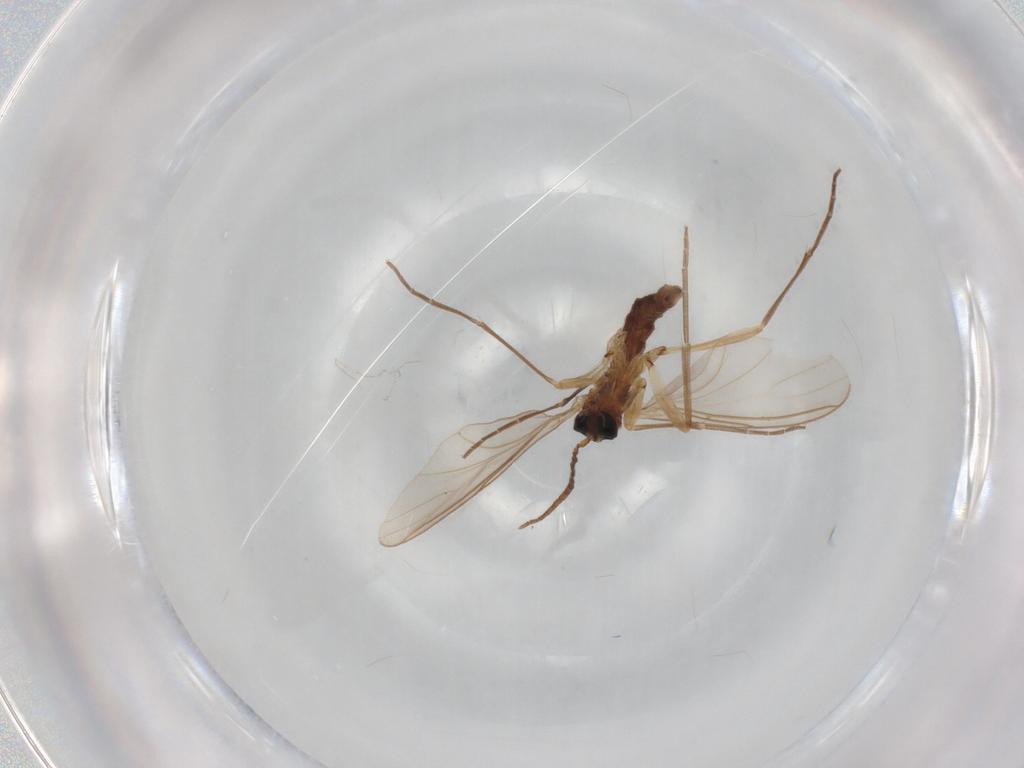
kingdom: Animalia
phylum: Arthropoda
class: Insecta
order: Diptera
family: Sciaridae
